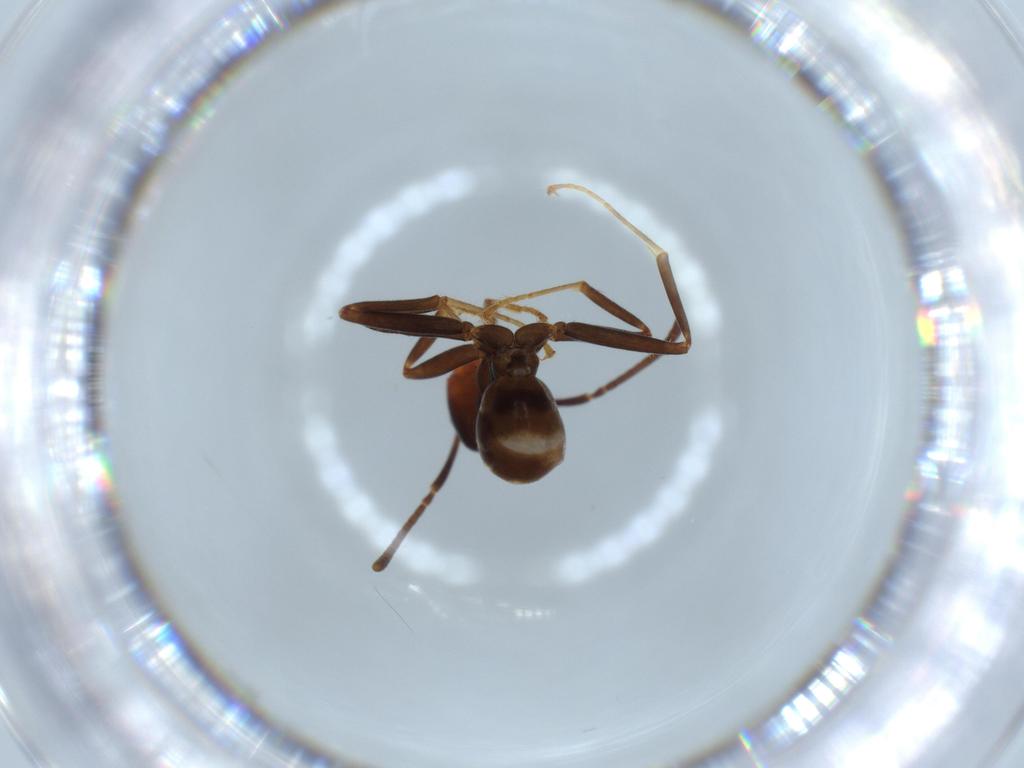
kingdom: Animalia
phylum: Arthropoda
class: Insecta
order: Hymenoptera
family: Formicidae
